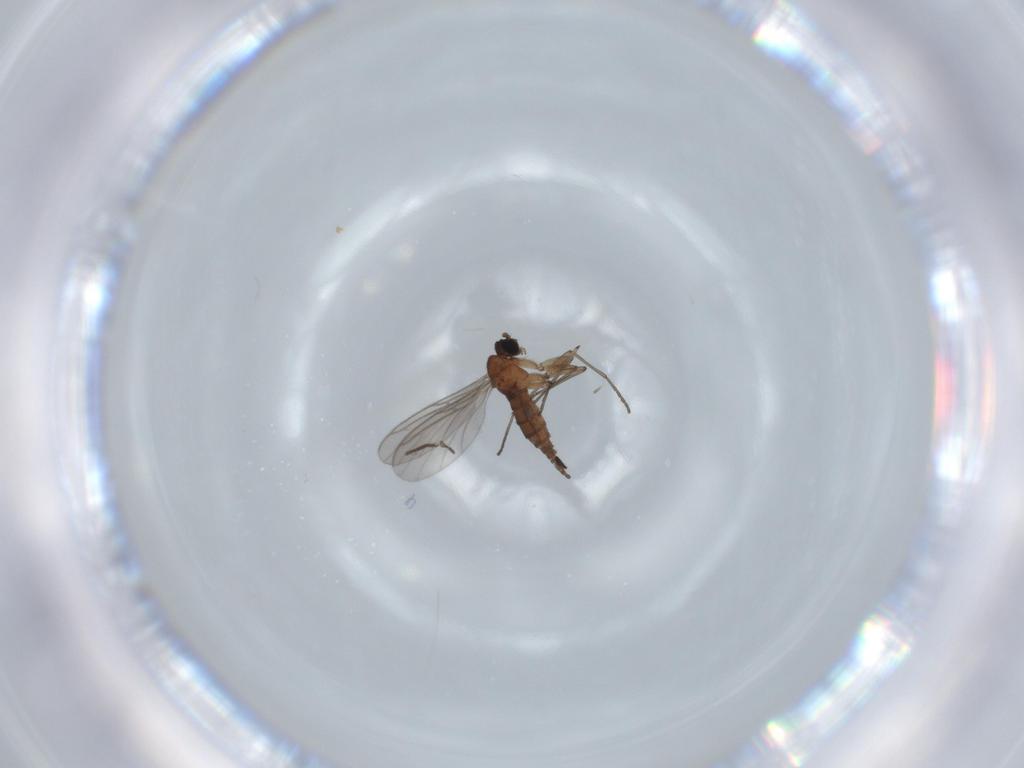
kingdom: Animalia
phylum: Arthropoda
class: Insecta
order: Diptera
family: Sciaridae
